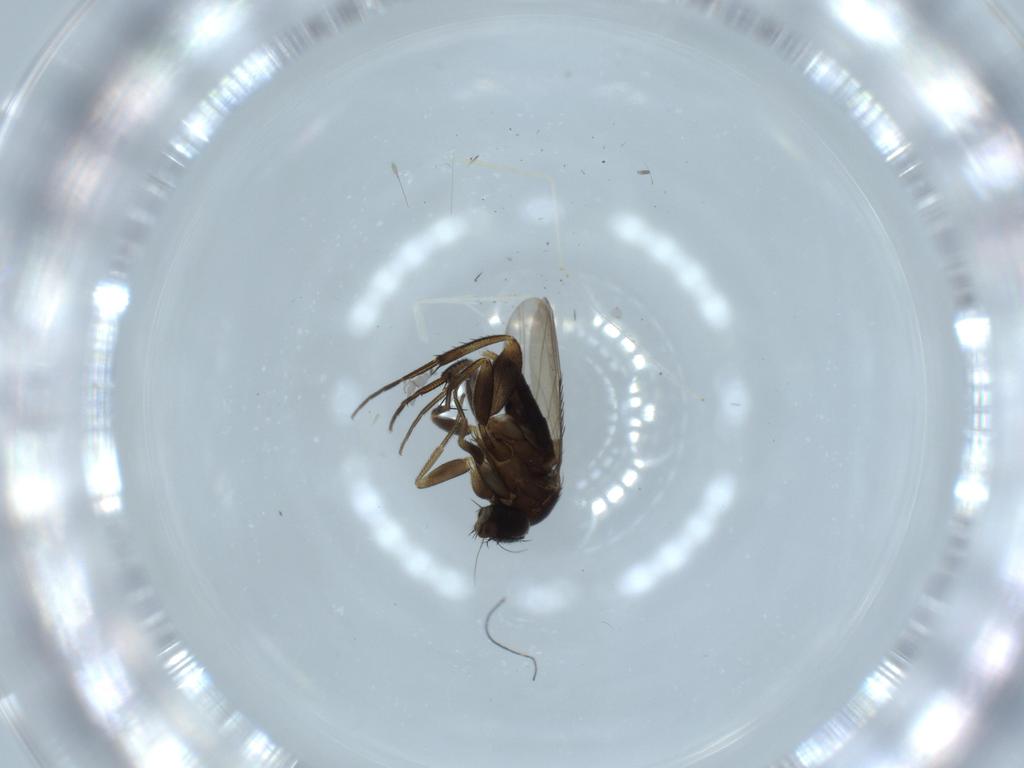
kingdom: Animalia
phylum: Arthropoda
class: Insecta
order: Diptera
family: Phoridae
